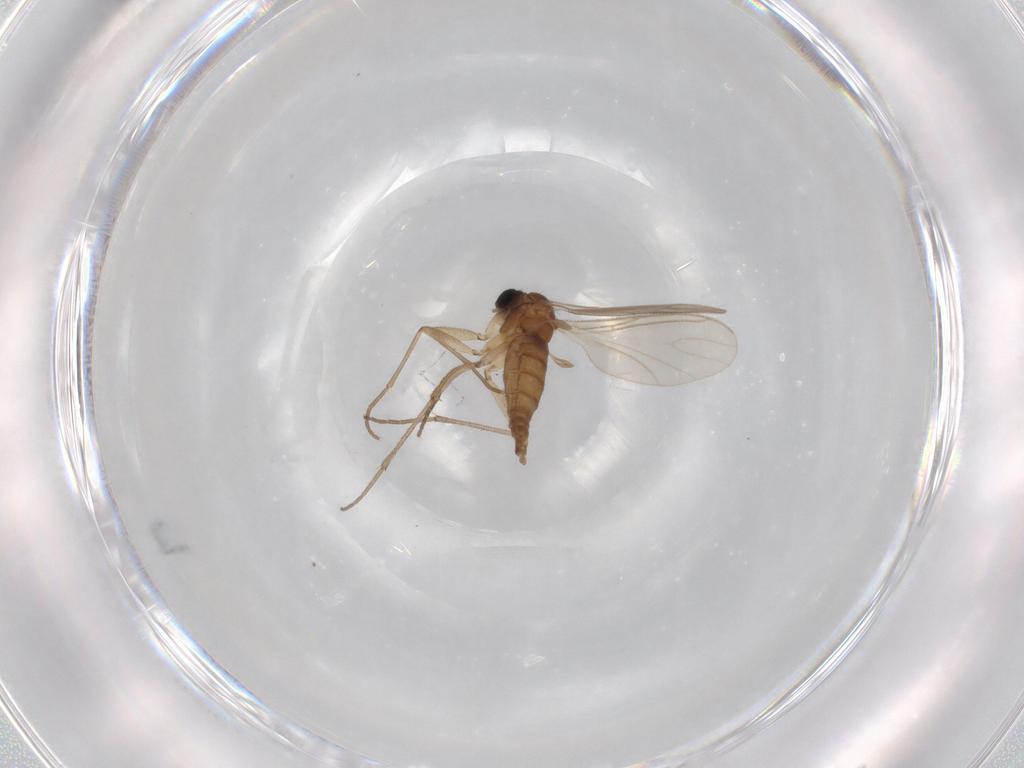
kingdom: Animalia
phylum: Arthropoda
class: Insecta
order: Diptera
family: Sciaridae
